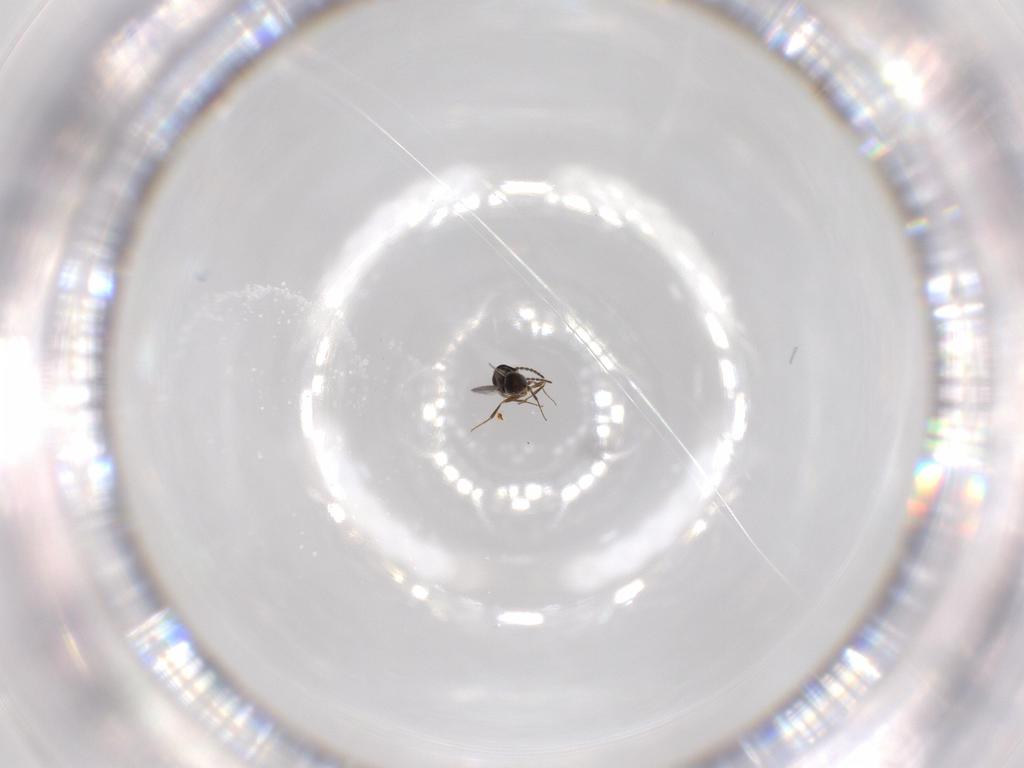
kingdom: Animalia
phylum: Arthropoda
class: Insecta
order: Hymenoptera
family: Scelionidae
